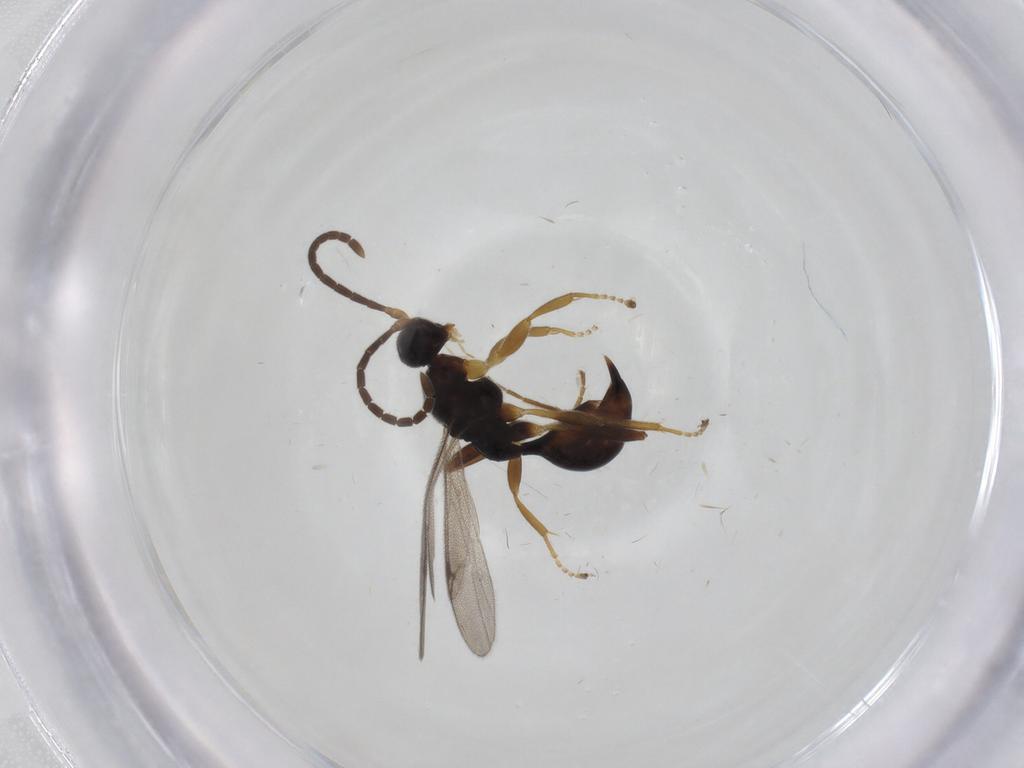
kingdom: Animalia
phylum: Arthropoda
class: Insecta
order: Hymenoptera
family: Proctotrupidae
